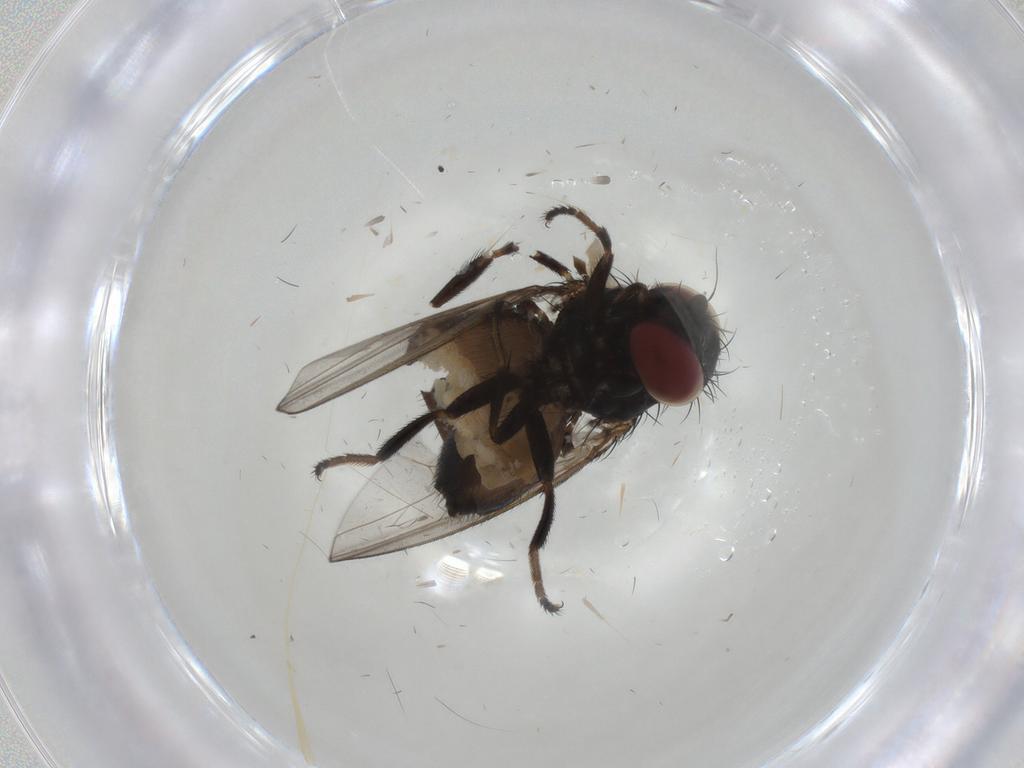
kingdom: Animalia
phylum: Arthropoda
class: Insecta
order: Diptera
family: Milichiidae
